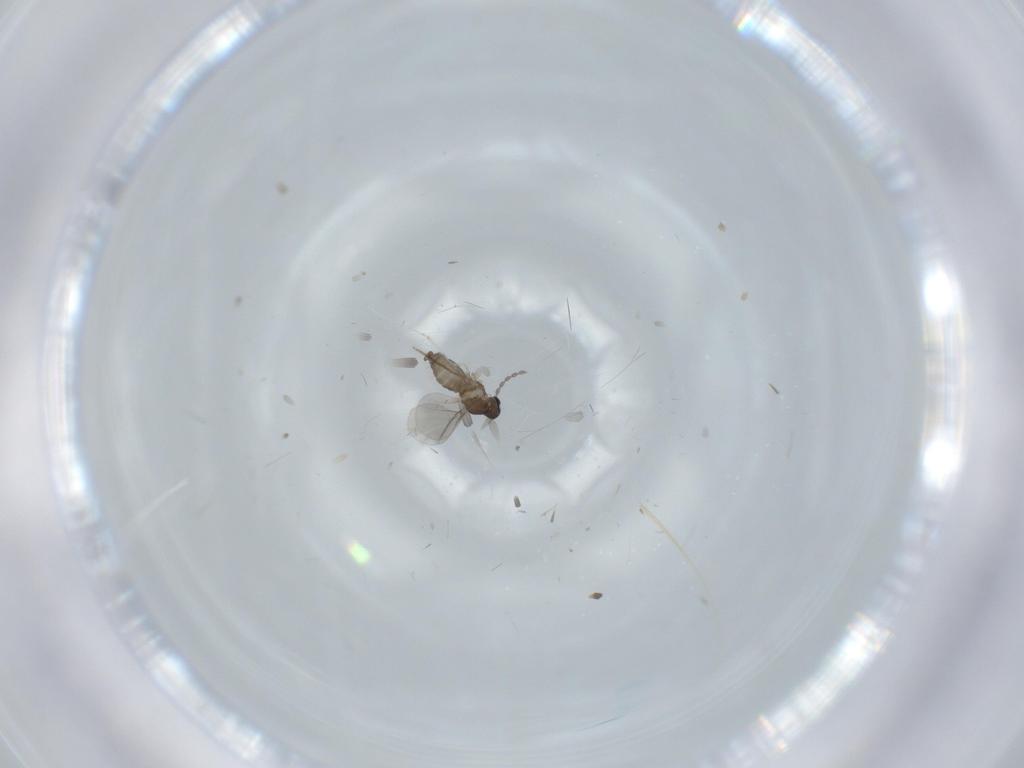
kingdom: Animalia
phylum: Arthropoda
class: Insecta
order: Diptera
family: Cecidomyiidae
